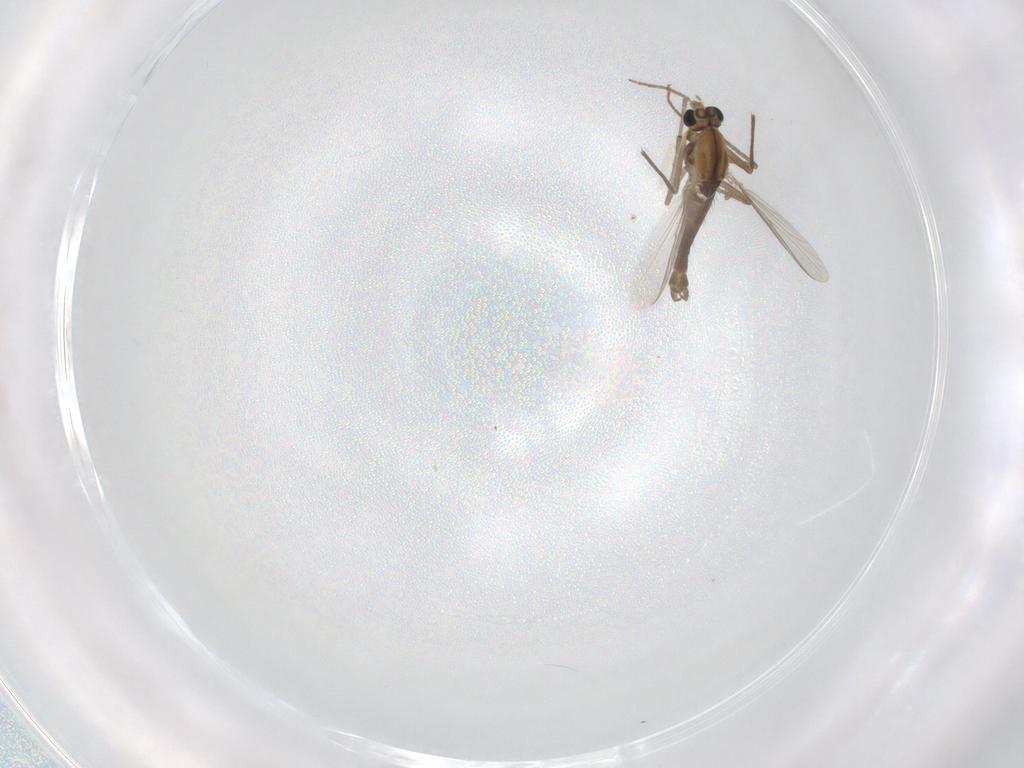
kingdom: Animalia
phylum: Arthropoda
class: Insecta
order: Diptera
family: Chironomidae
